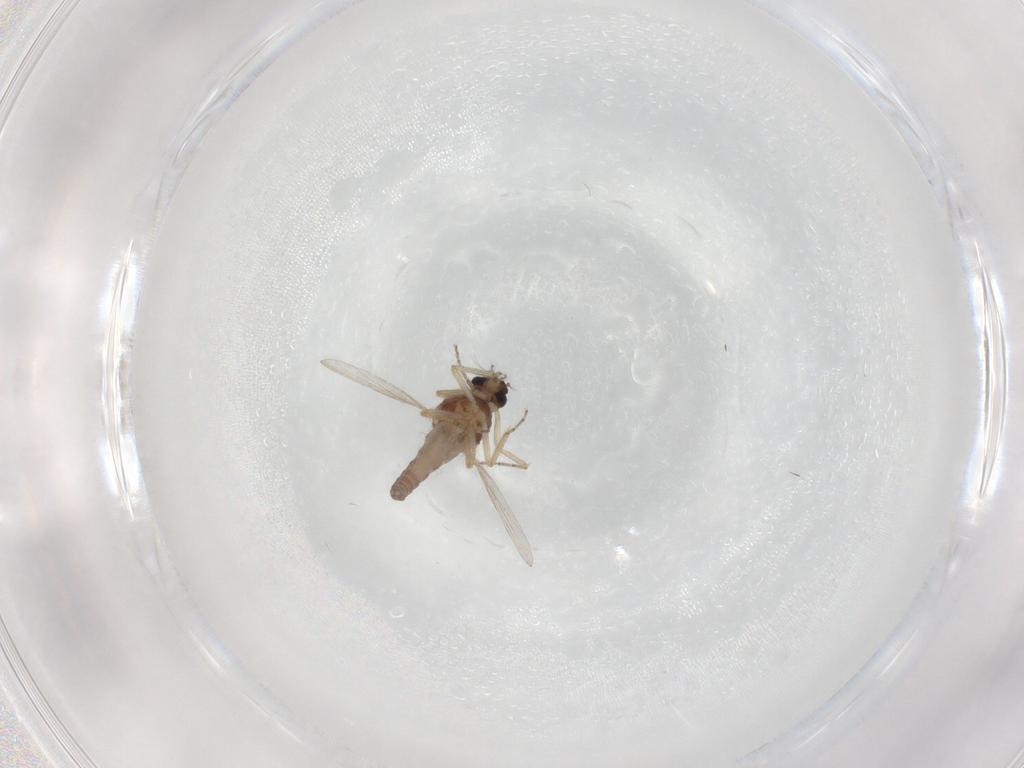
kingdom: Animalia
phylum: Arthropoda
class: Insecta
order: Diptera
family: Ceratopogonidae
